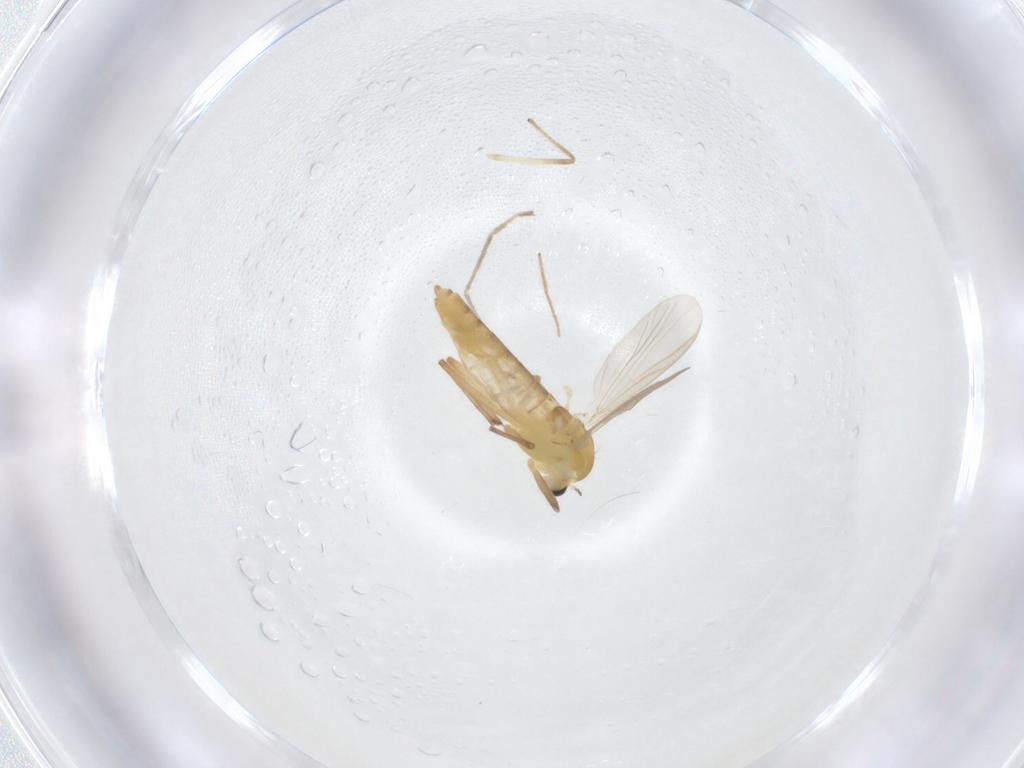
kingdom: Animalia
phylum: Arthropoda
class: Insecta
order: Diptera
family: Chironomidae
